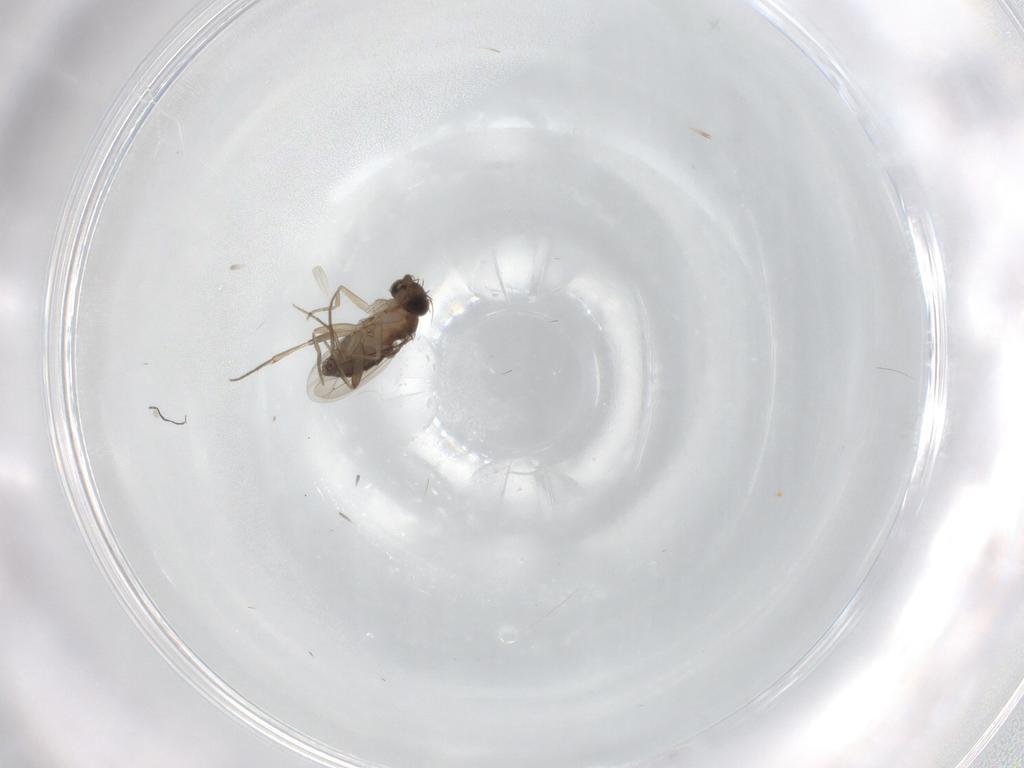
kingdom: Animalia
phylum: Arthropoda
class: Insecta
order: Diptera
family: Phoridae
